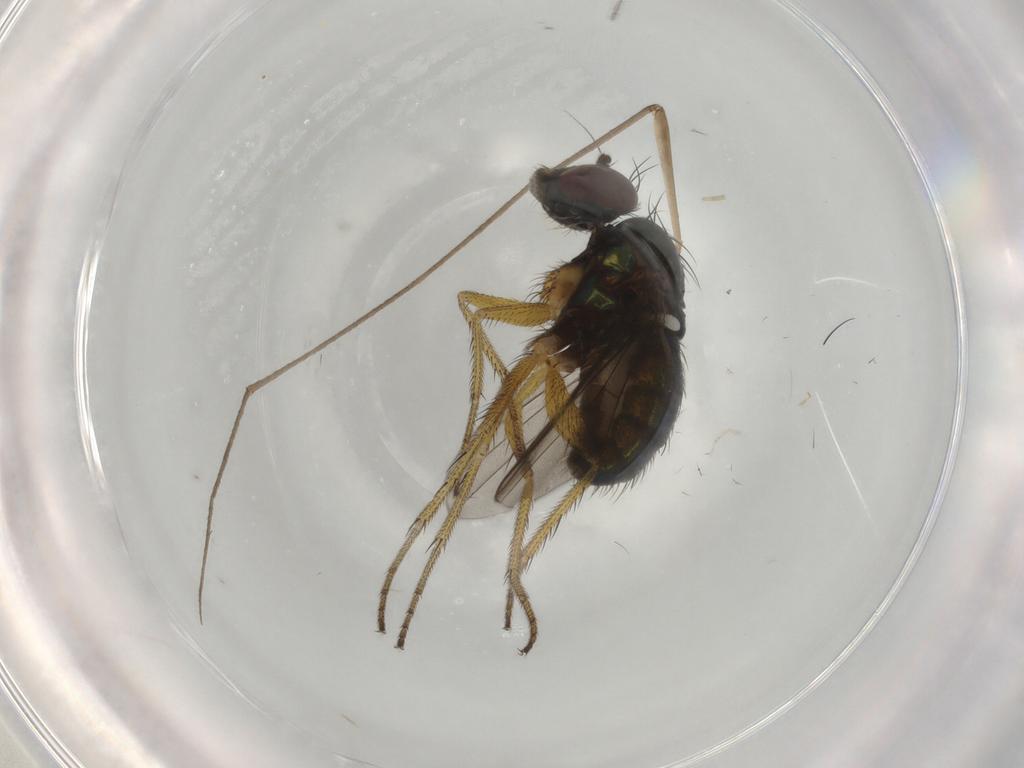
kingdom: Animalia
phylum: Arthropoda
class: Insecta
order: Diptera
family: Dolichopodidae
